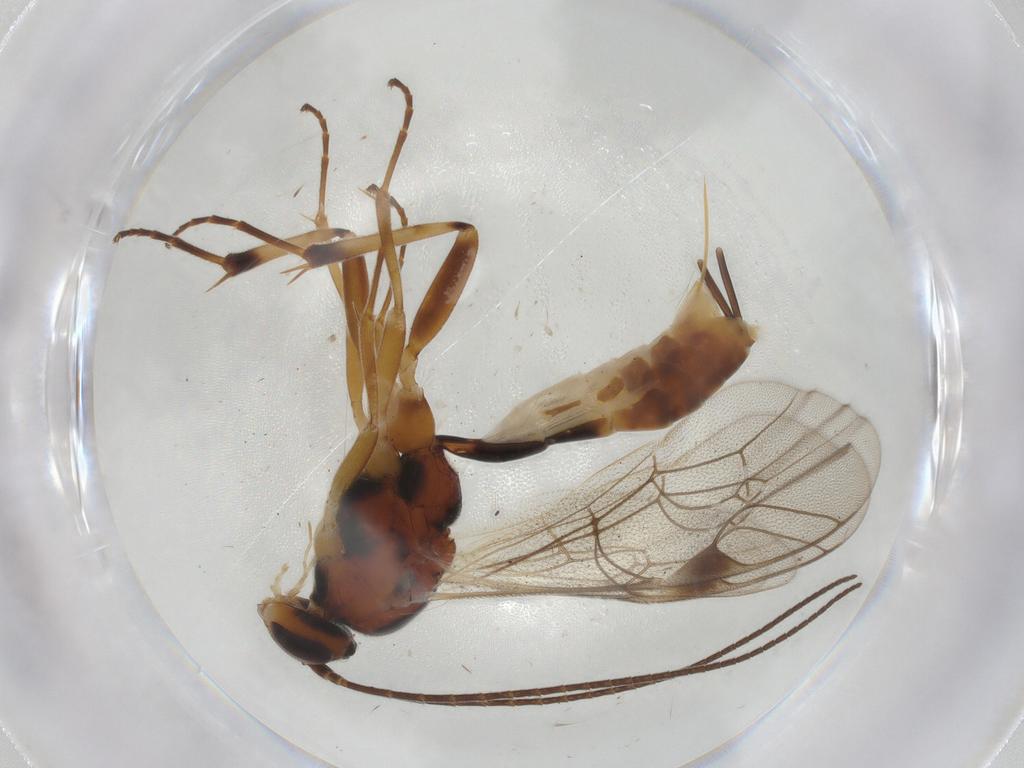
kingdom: Animalia
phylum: Arthropoda
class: Insecta
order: Hymenoptera
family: Ichneumonidae
